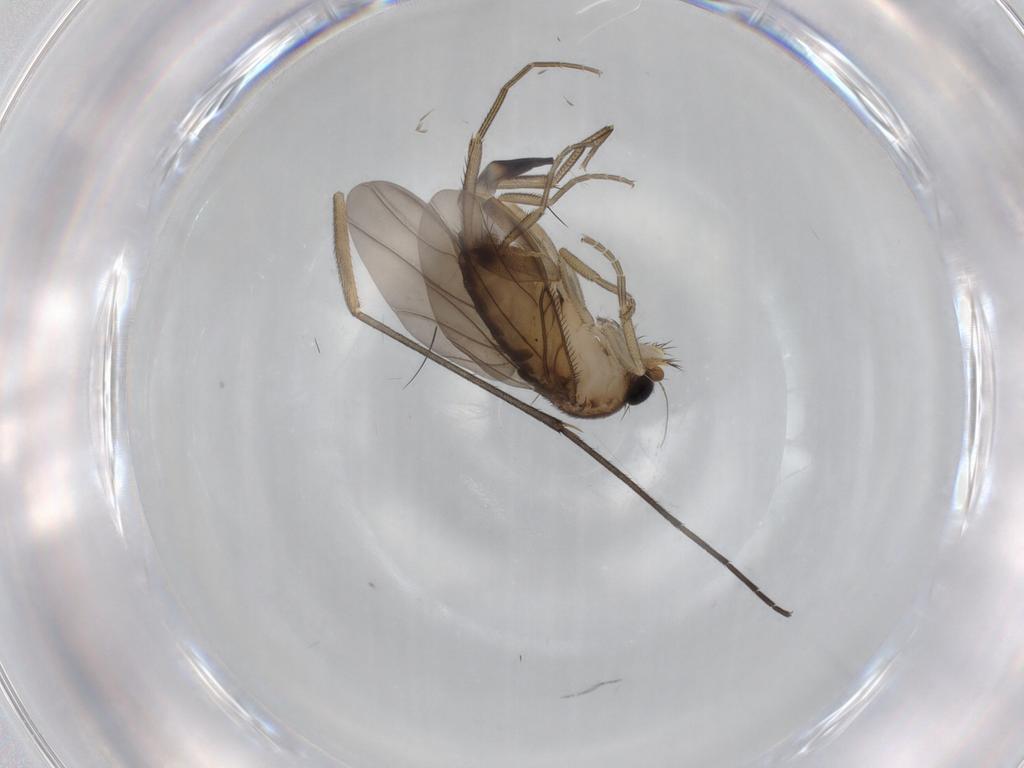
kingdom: Animalia
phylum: Arthropoda
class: Insecta
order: Diptera
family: Phoridae
